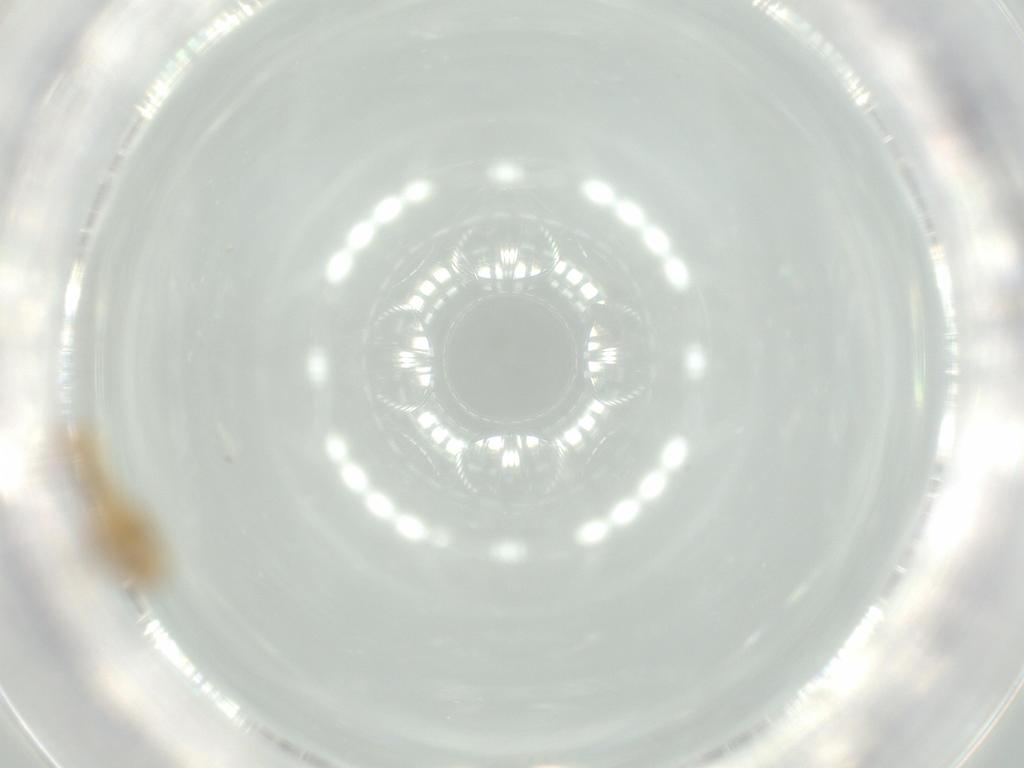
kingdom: Animalia
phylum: Arthropoda
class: Insecta
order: Diptera
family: Chironomidae
